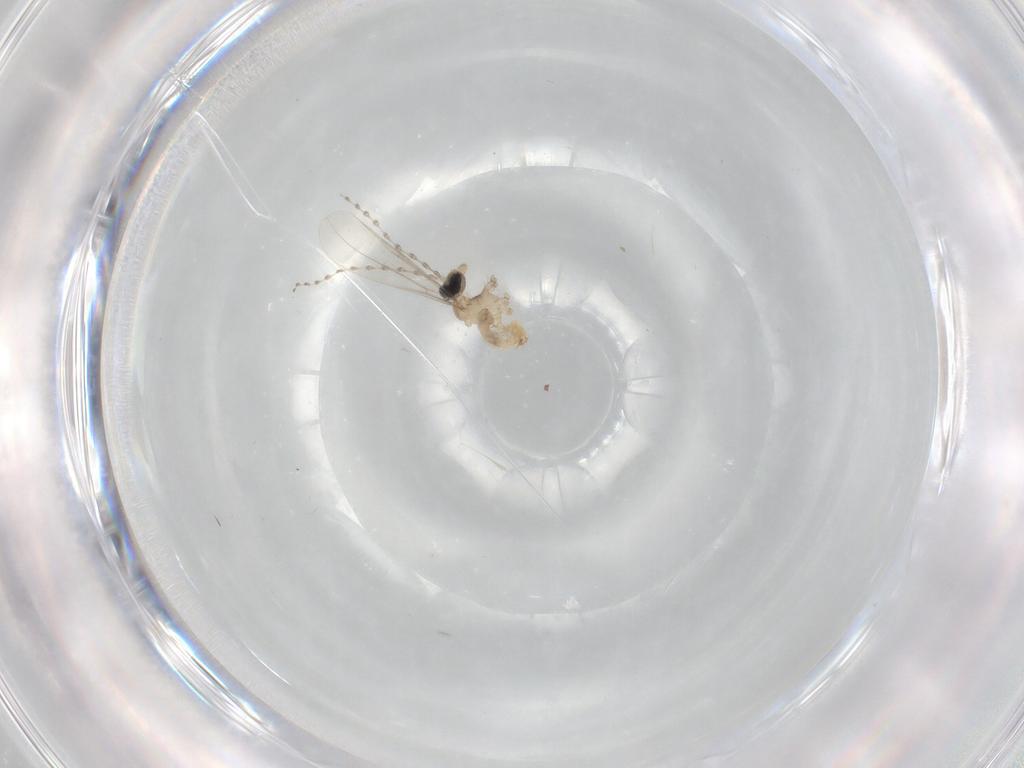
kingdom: Animalia
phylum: Arthropoda
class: Insecta
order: Diptera
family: Cecidomyiidae
